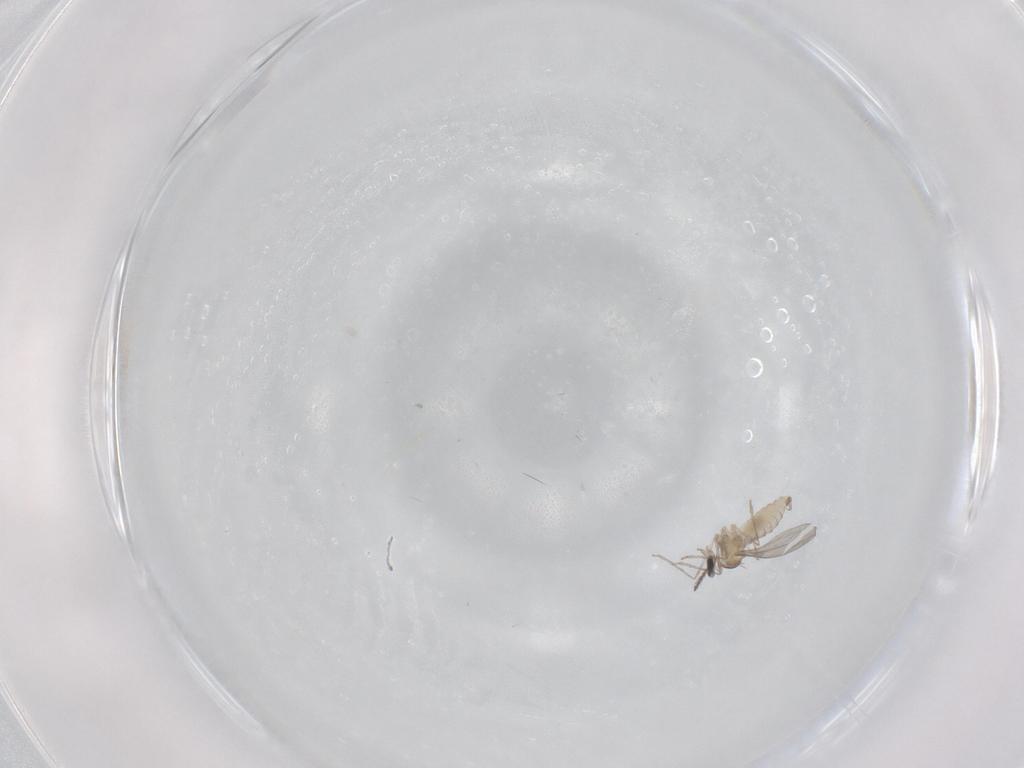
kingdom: Animalia
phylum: Arthropoda
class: Insecta
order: Diptera
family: Cecidomyiidae
